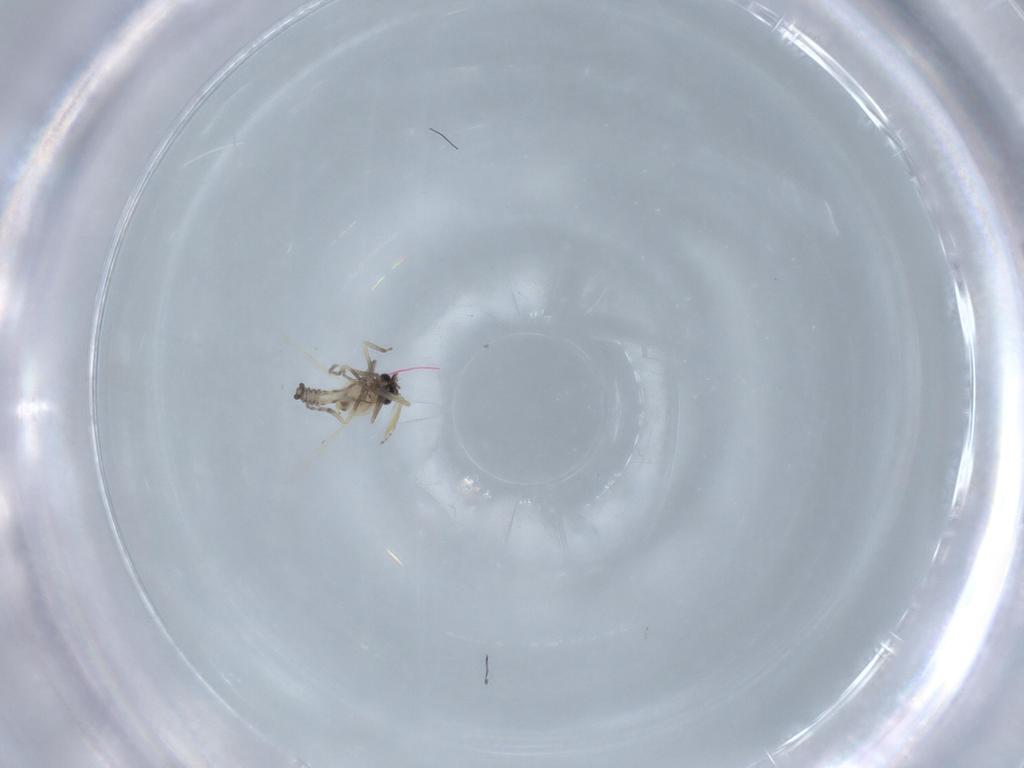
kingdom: Animalia
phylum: Arthropoda
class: Insecta
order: Diptera
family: Ceratopogonidae
